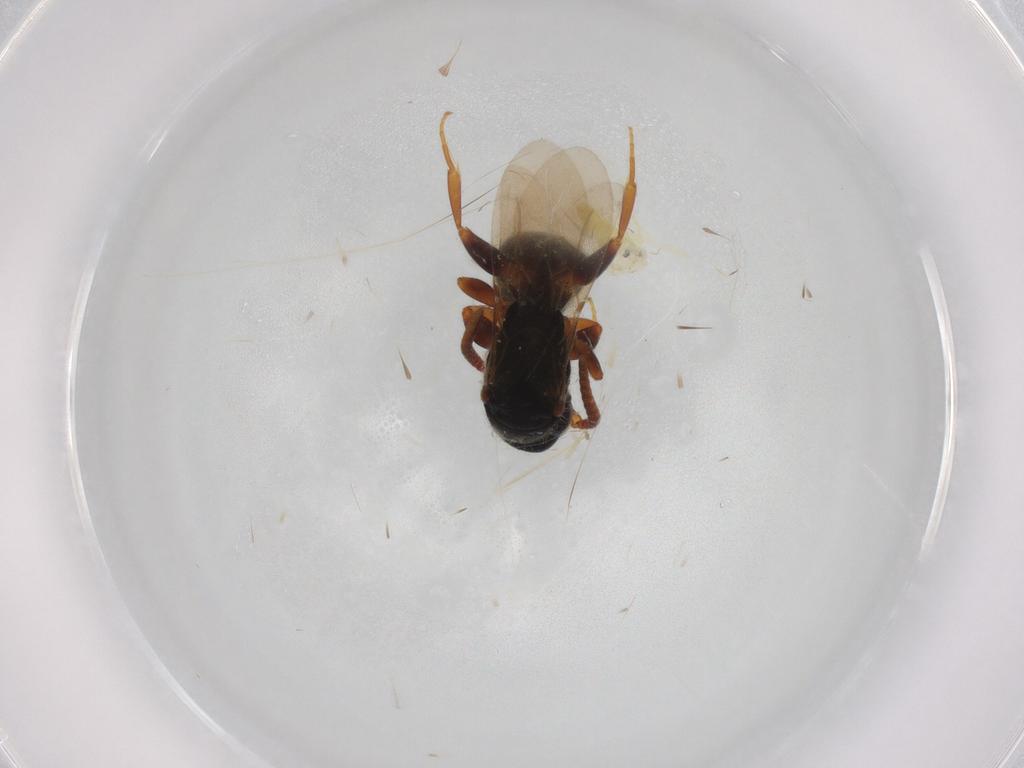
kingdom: Animalia
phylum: Arthropoda
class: Insecta
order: Hymenoptera
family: Bethylidae
